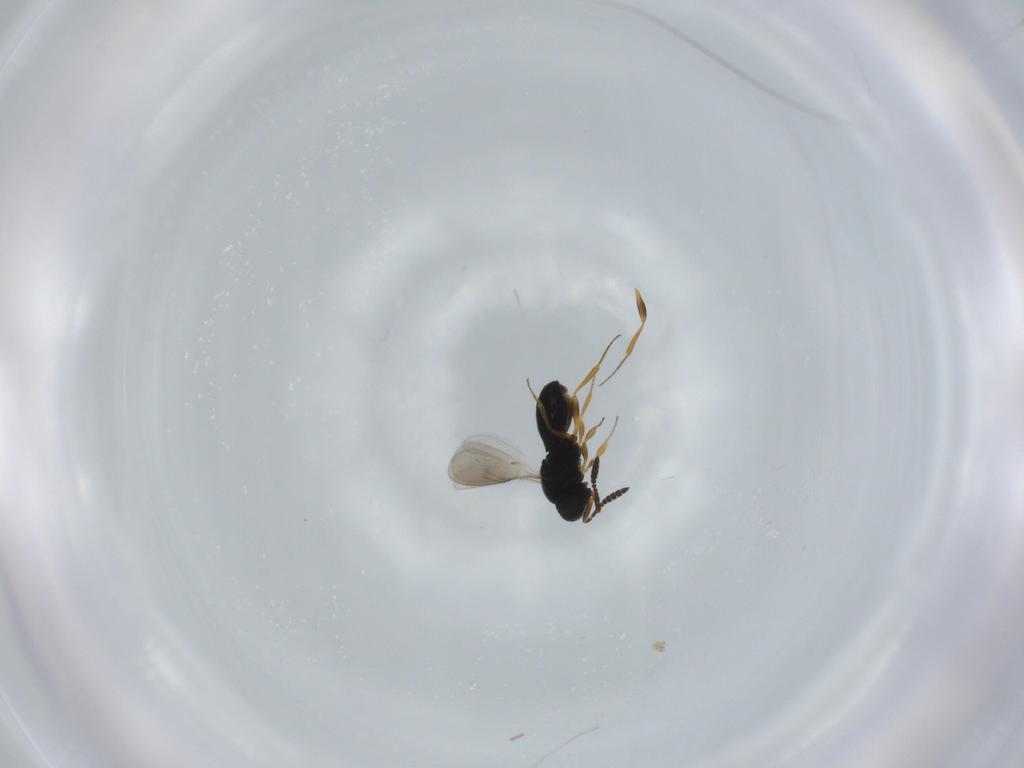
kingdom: Animalia
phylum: Arthropoda
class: Insecta
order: Hymenoptera
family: Scelionidae
